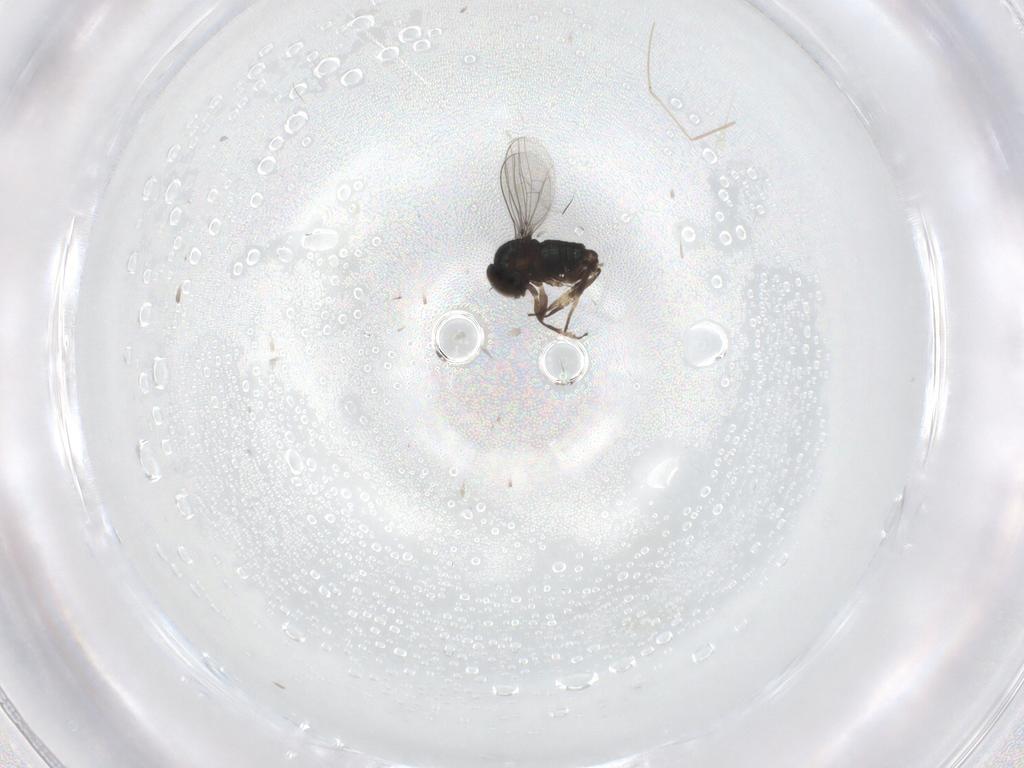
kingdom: Animalia
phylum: Arthropoda
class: Insecta
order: Diptera
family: Dolichopodidae
